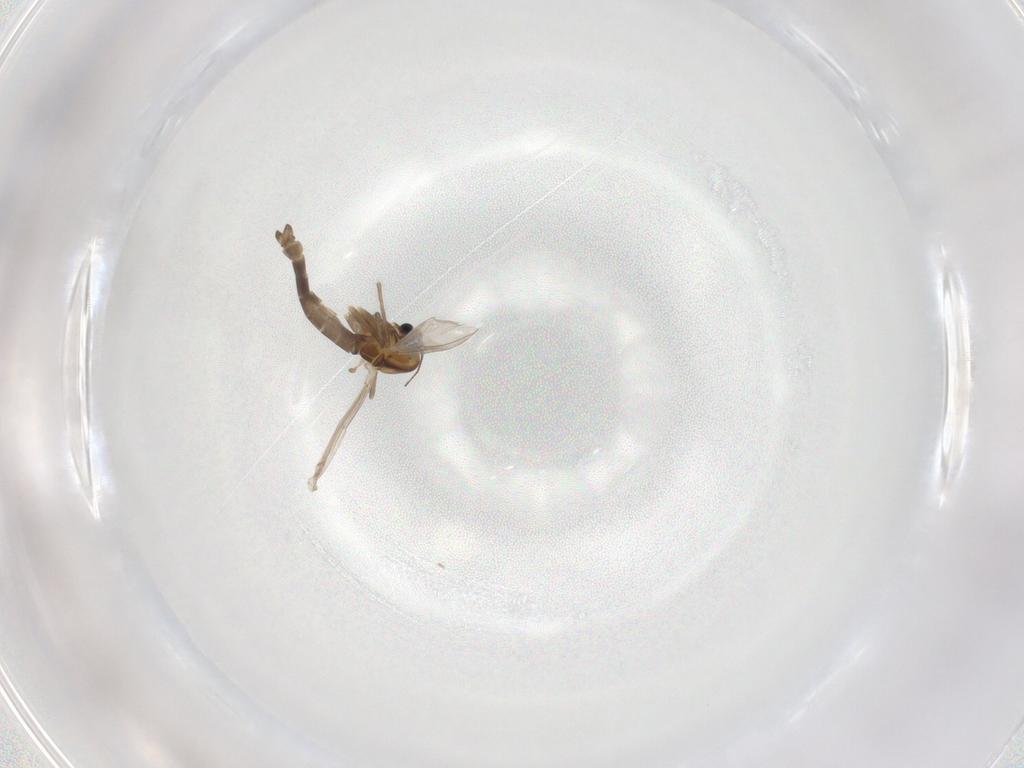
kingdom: Animalia
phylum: Arthropoda
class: Insecta
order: Diptera
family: Chironomidae
